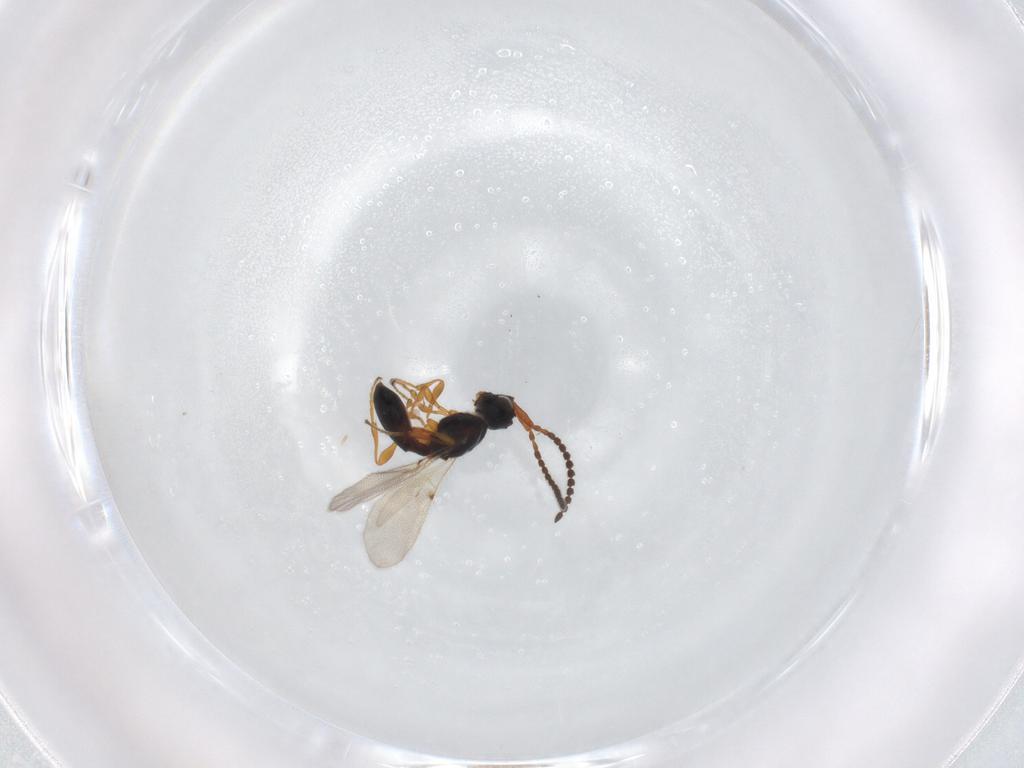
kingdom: Animalia
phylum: Arthropoda
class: Insecta
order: Hymenoptera
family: Diapriidae
